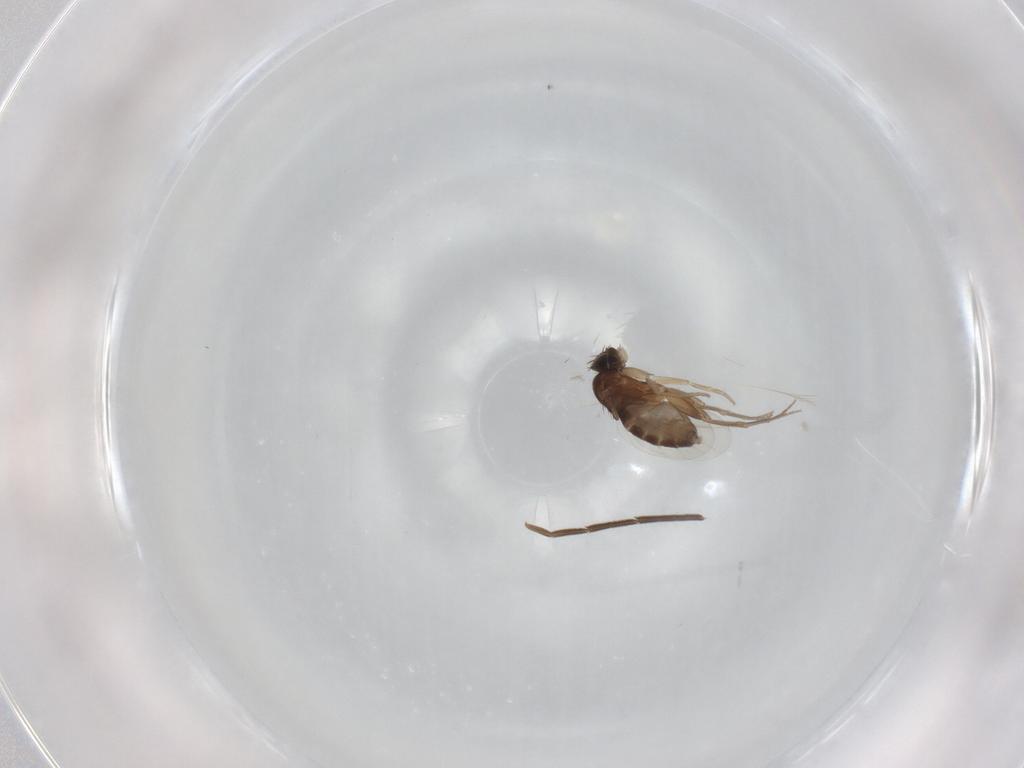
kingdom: Animalia
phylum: Arthropoda
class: Insecta
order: Diptera
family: Phoridae
